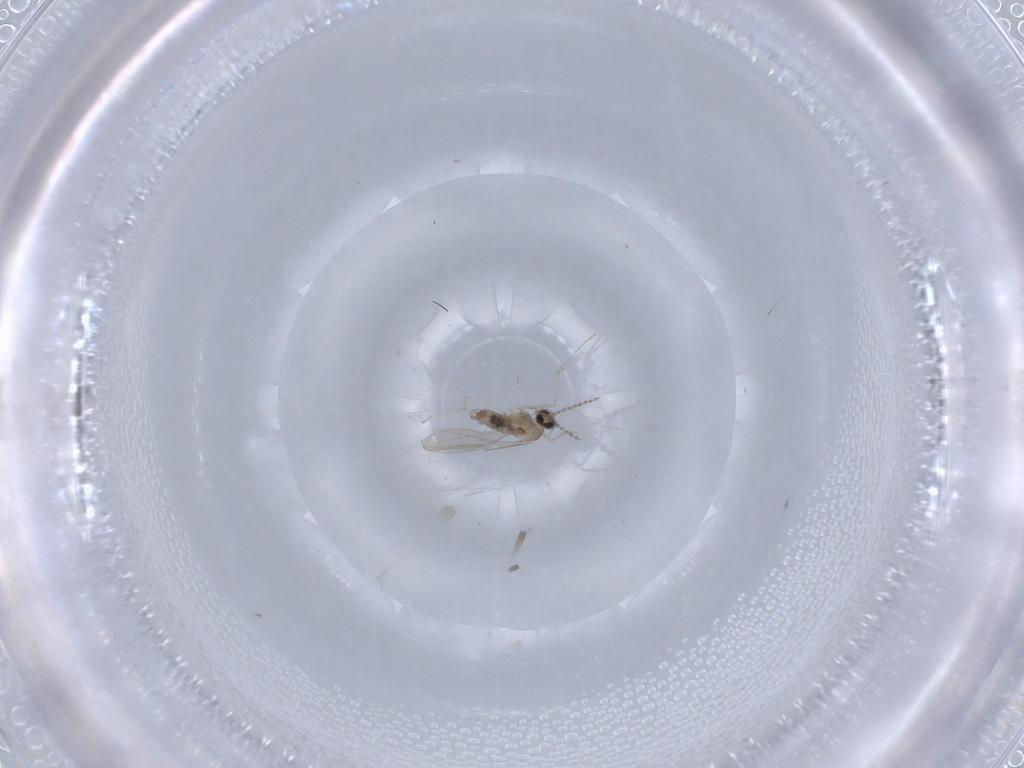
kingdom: Animalia
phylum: Arthropoda
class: Insecta
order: Diptera
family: Cecidomyiidae
